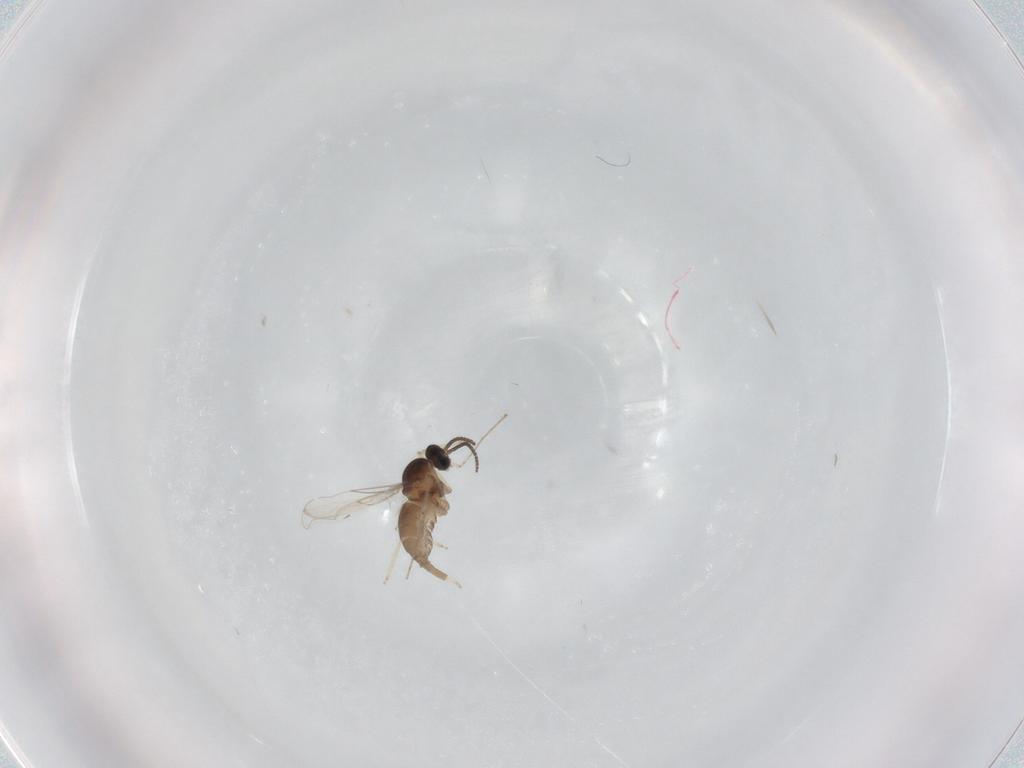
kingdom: Animalia
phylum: Arthropoda
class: Insecta
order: Diptera
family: Cecidomyiidae
